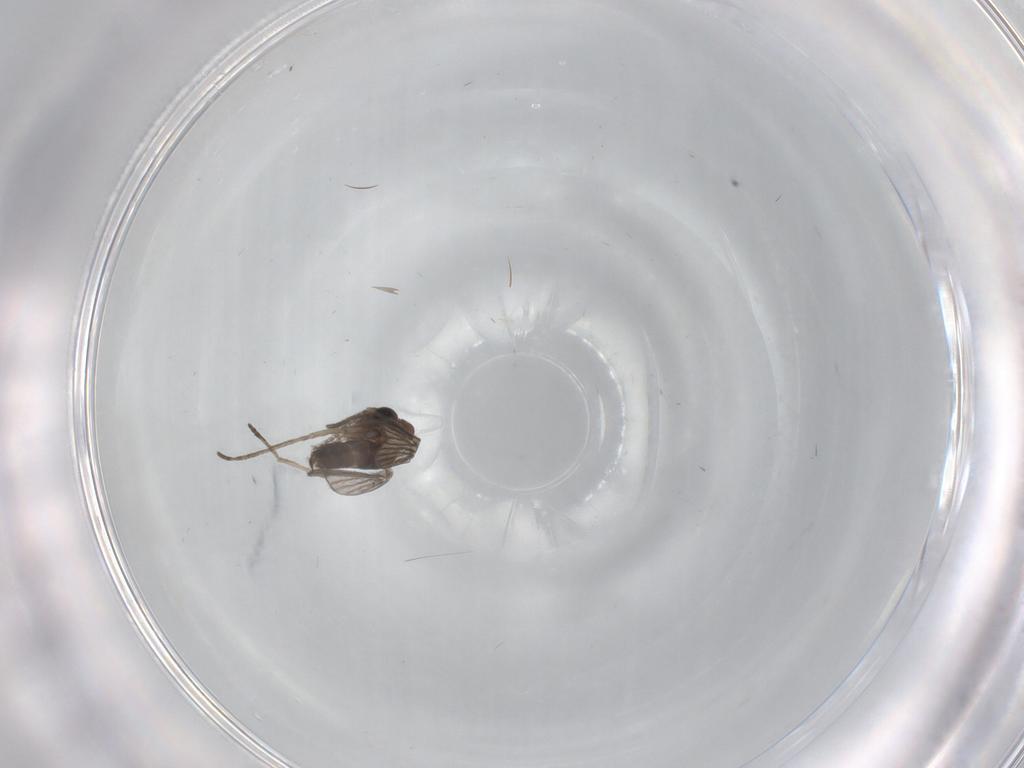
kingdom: Animalia
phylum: Arthropoda
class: Insecta
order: Diptera
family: Sciaridae
